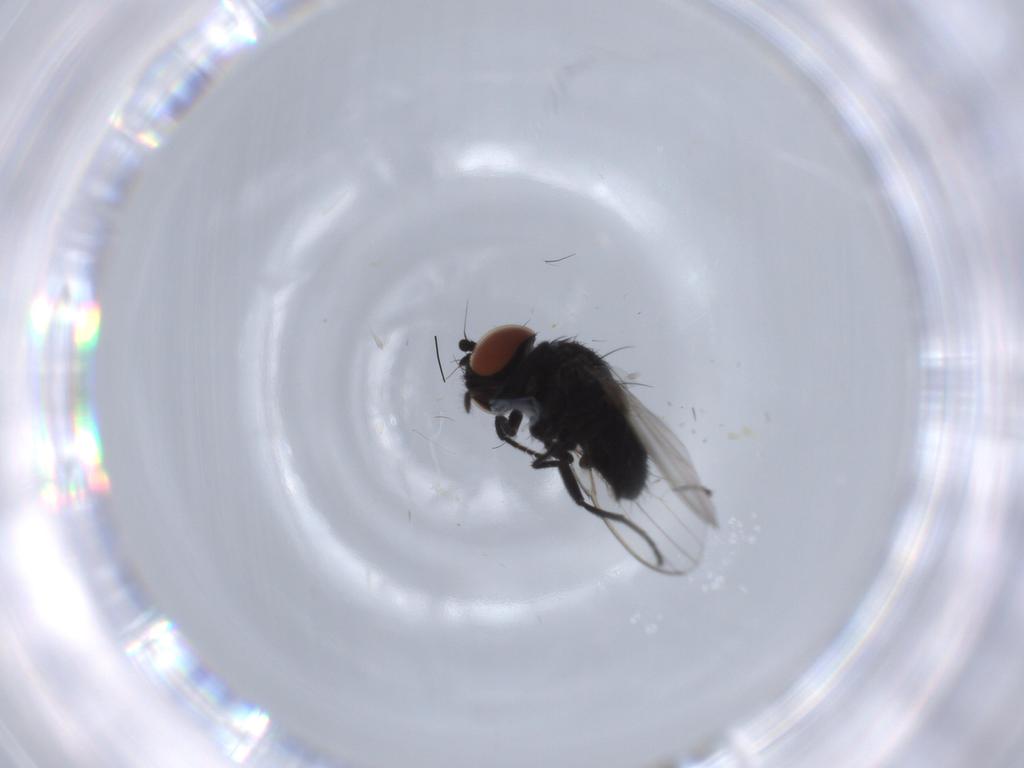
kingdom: Animalia
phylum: Arthropoda
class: Insecta
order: Diptera
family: Milichiidae
